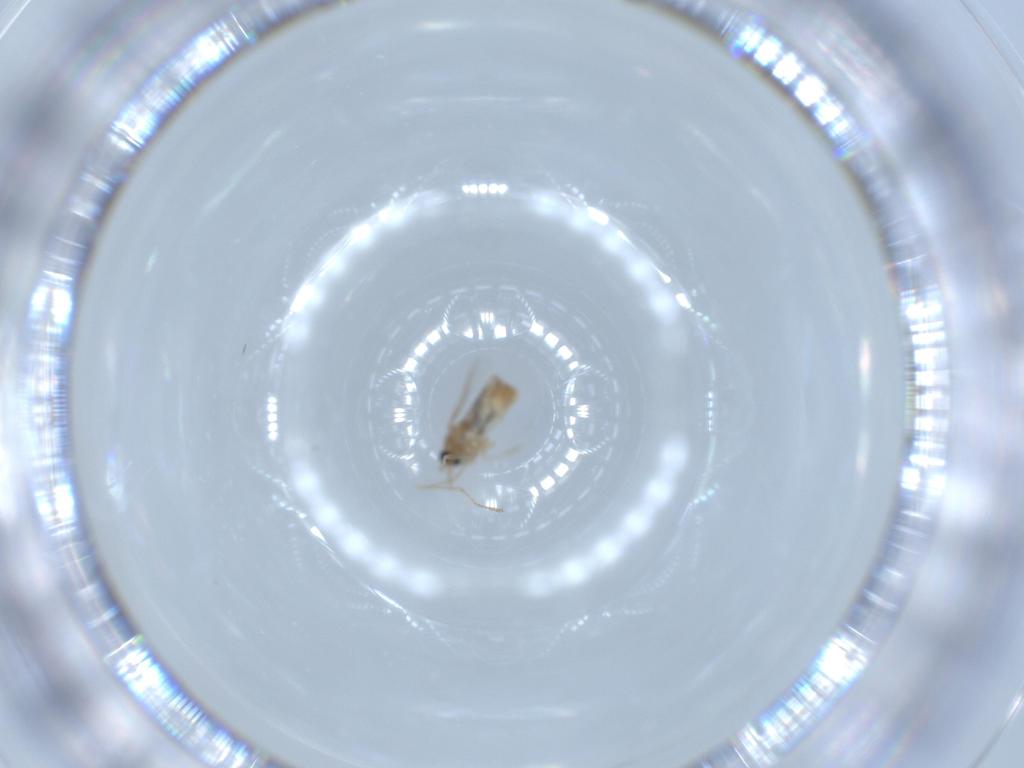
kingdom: Animalia
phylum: Arthropoda
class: Insecta
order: Diptera
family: Cecidomyiidae
